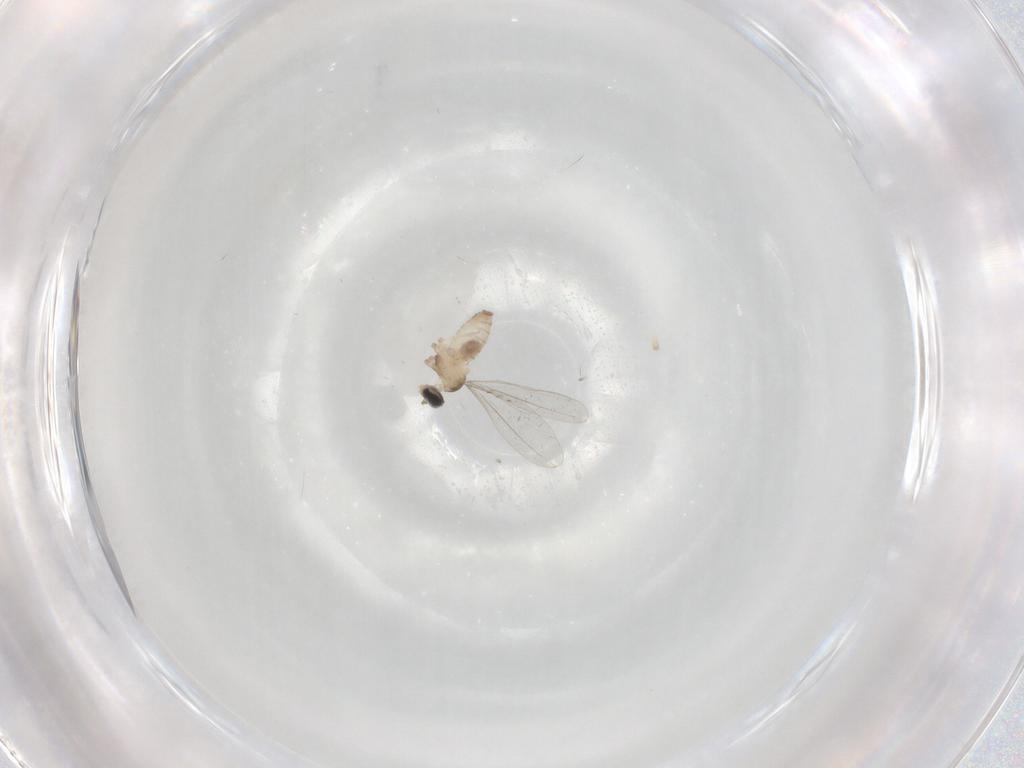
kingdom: Animalia
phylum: Arthropoda
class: Insecta
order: Diptera
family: Cecidomyiidae
